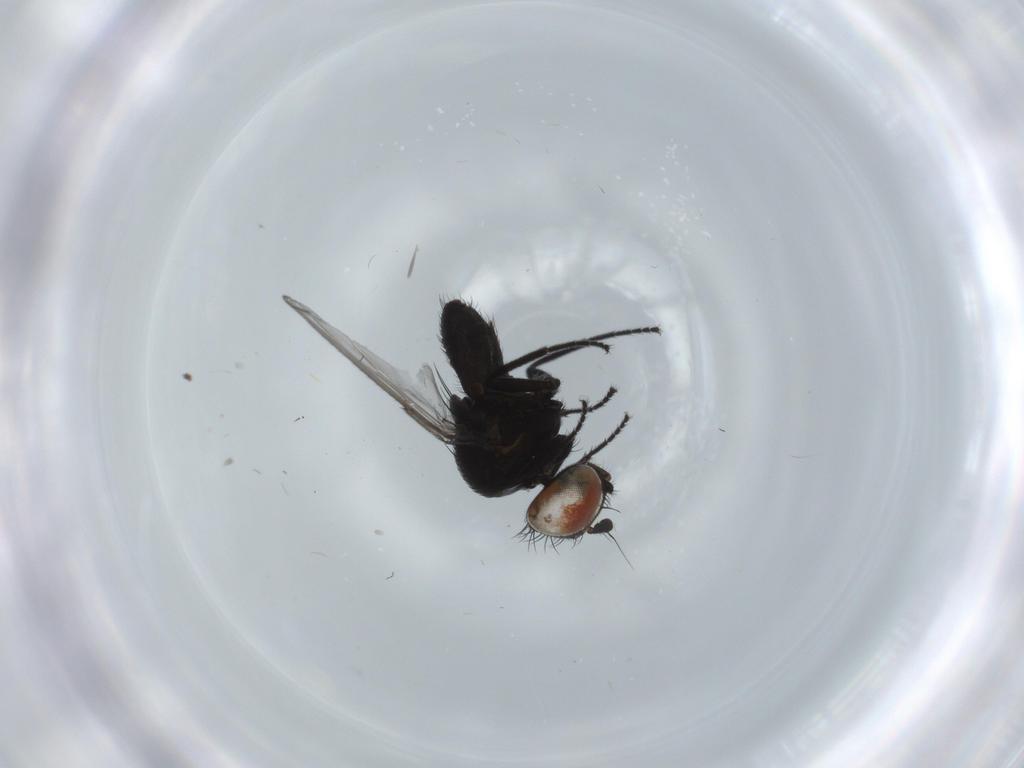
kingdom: Animalia
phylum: Arthropoda
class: Insecta
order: Diptera
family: Milichiidae
